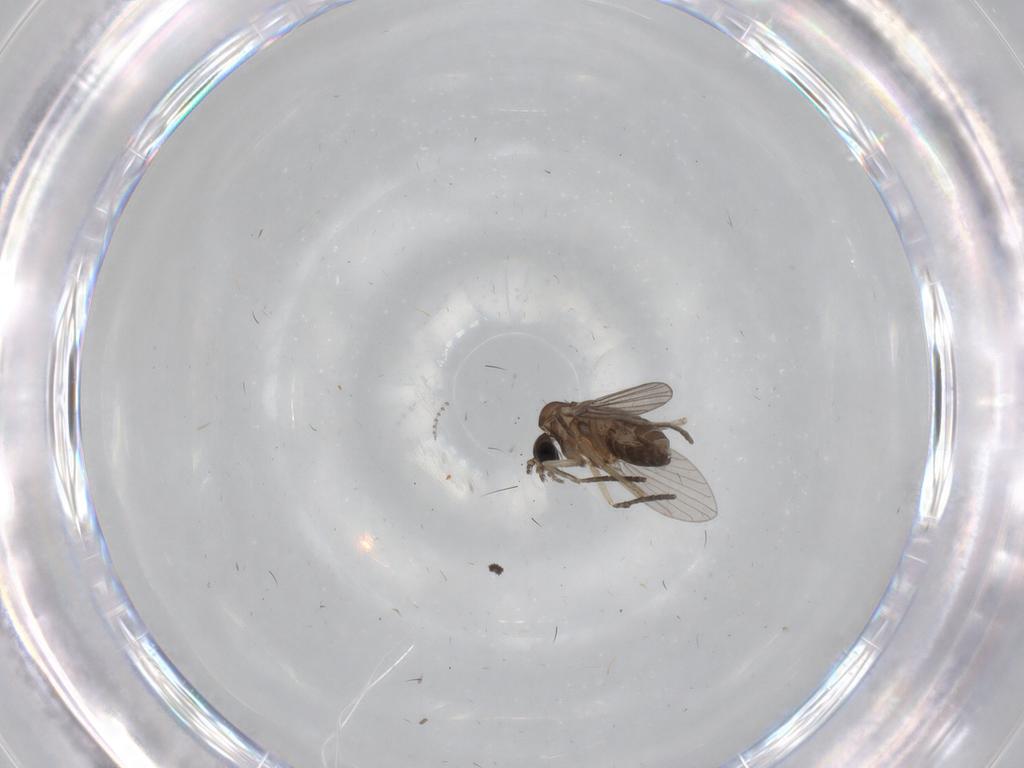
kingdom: Animalia
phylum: Arthropoda
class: Insecta
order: Diptera
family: Chironomidae
